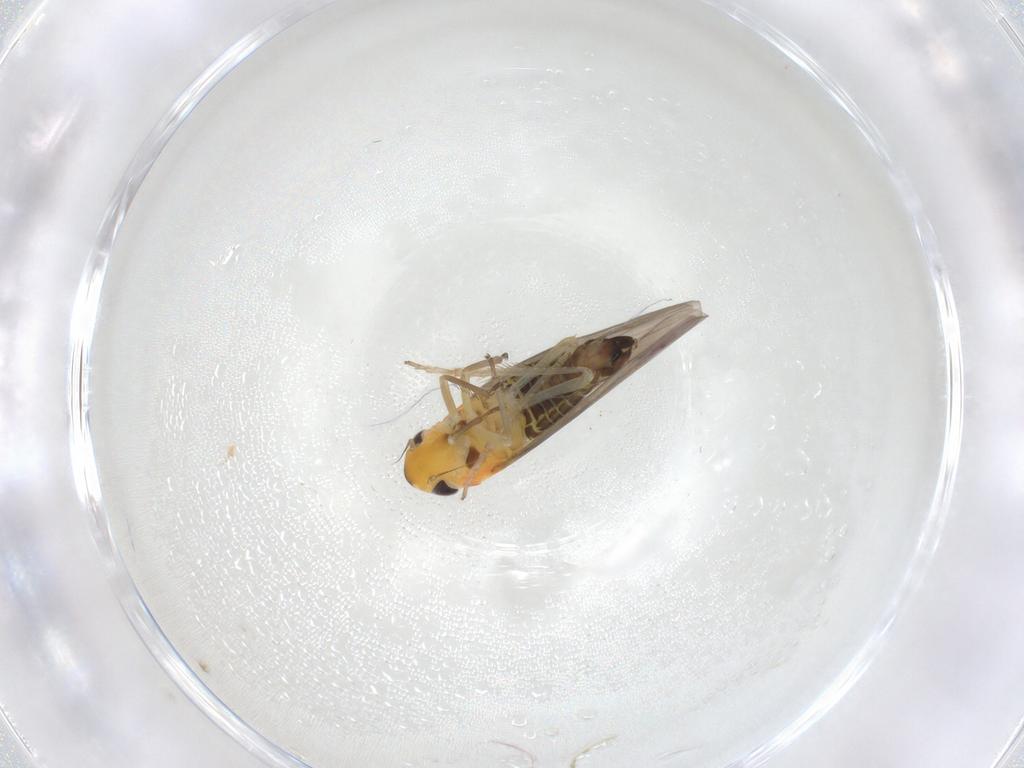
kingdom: Animalia
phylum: Arthropoda
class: Insecta
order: Hemiptera
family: Cicadellidae
